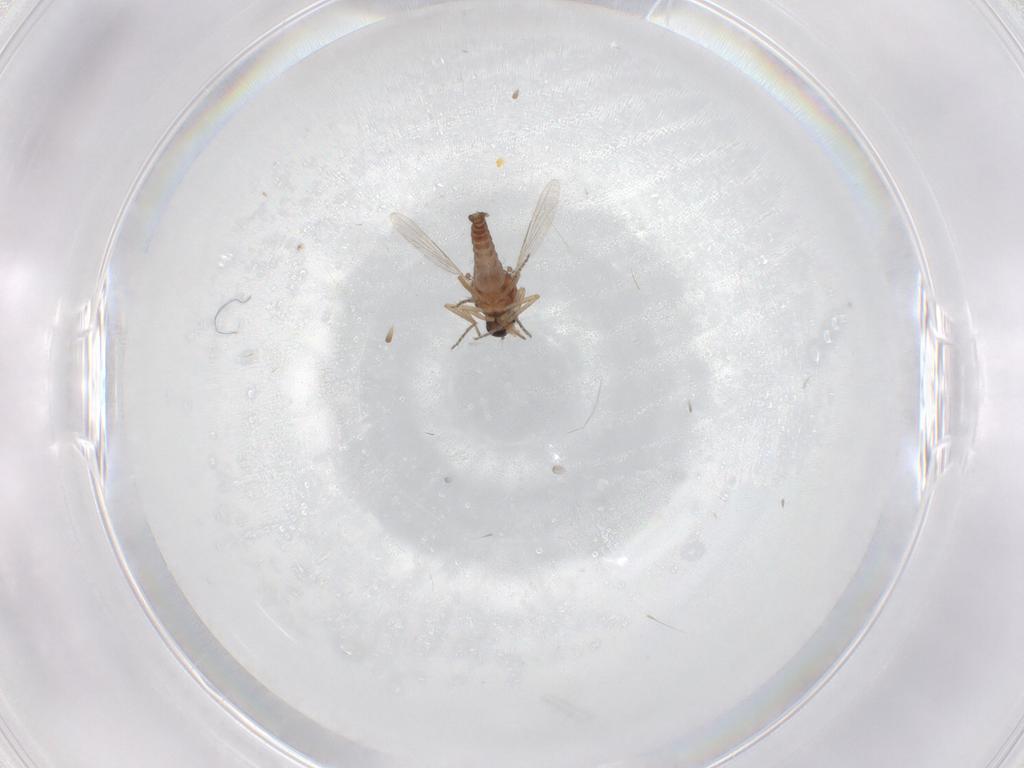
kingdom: Animalia
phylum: Arthropoda
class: Insecta
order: Diptera
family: Ceratopogonidae
